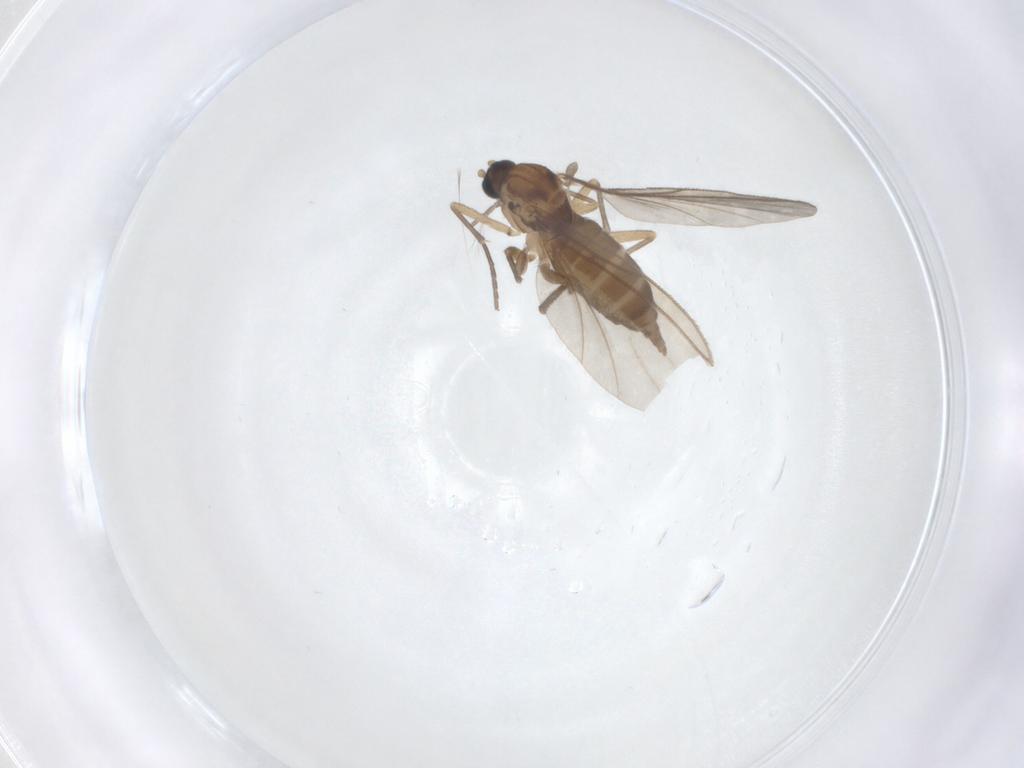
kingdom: Animalia
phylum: Arthropoda
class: Insecta
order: Diptera
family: Sciaridae
